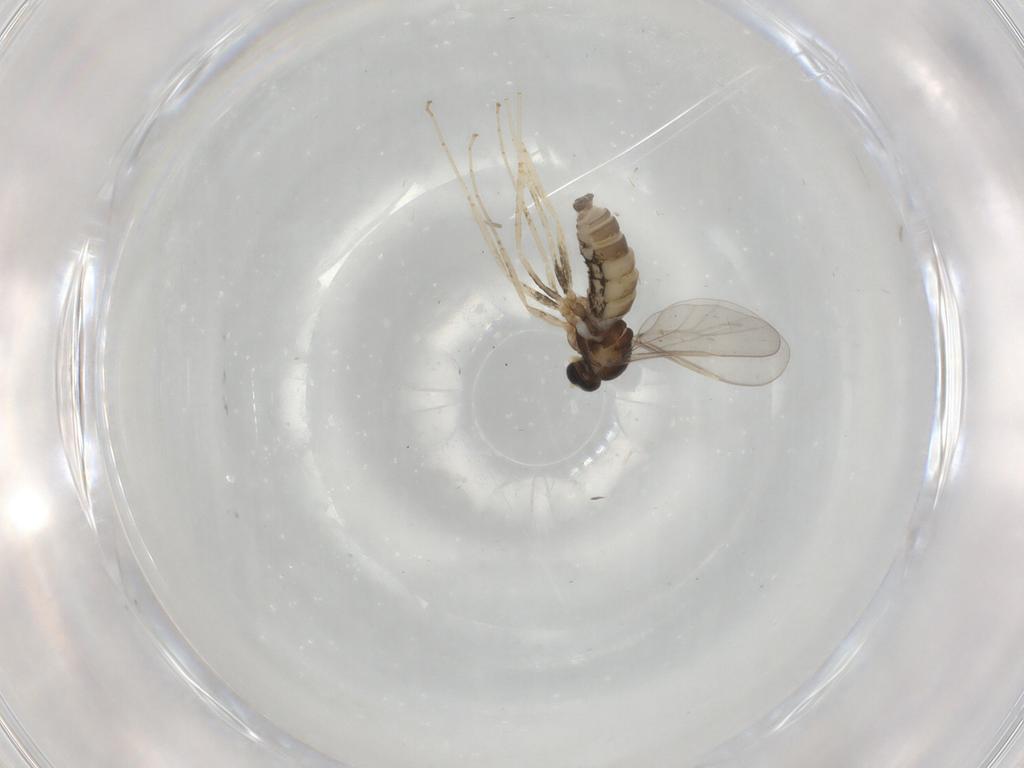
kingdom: Animalia
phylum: Arthropoda
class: Insecta
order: Diptera
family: Cecidomyiidae
